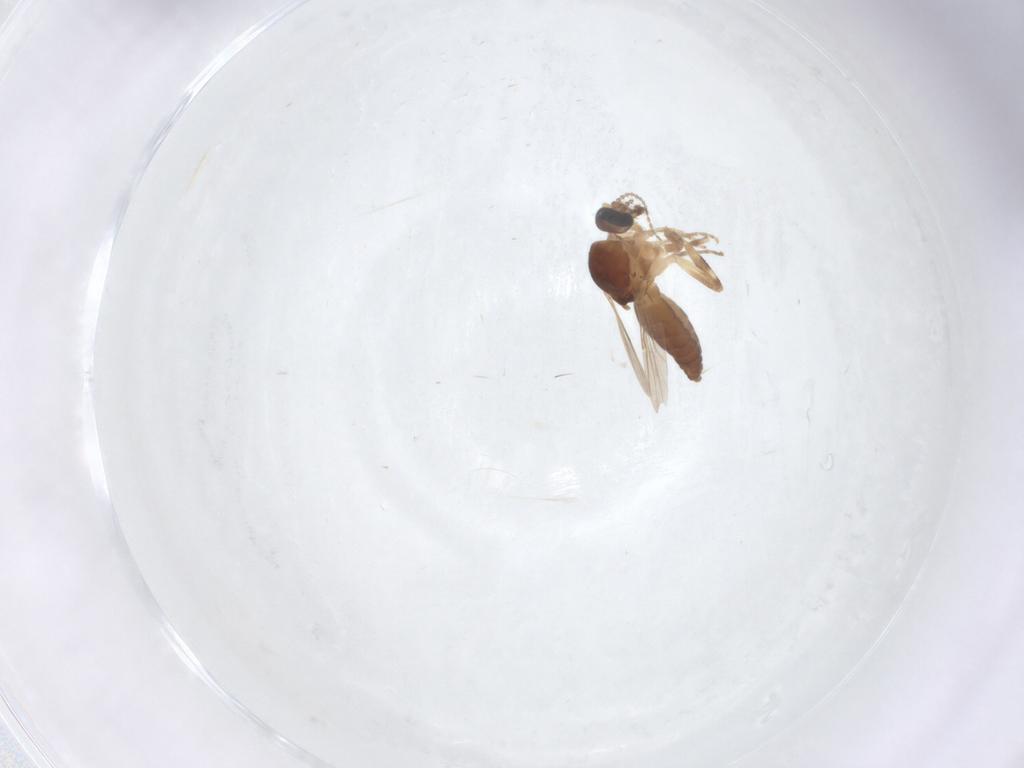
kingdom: Animalia
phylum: Arthropoda
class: Insecta
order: Diptera
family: Ceratopogonidae
